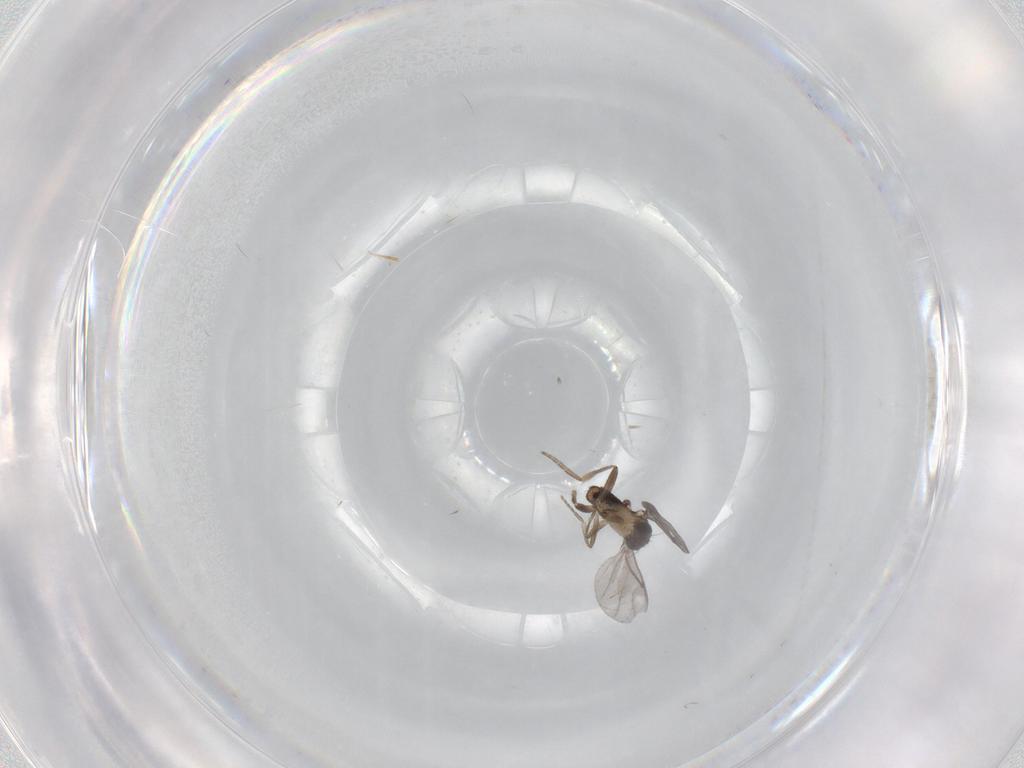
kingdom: Animalia
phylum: Arthropoda
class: Insecta
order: Diptera
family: Chironomidae
